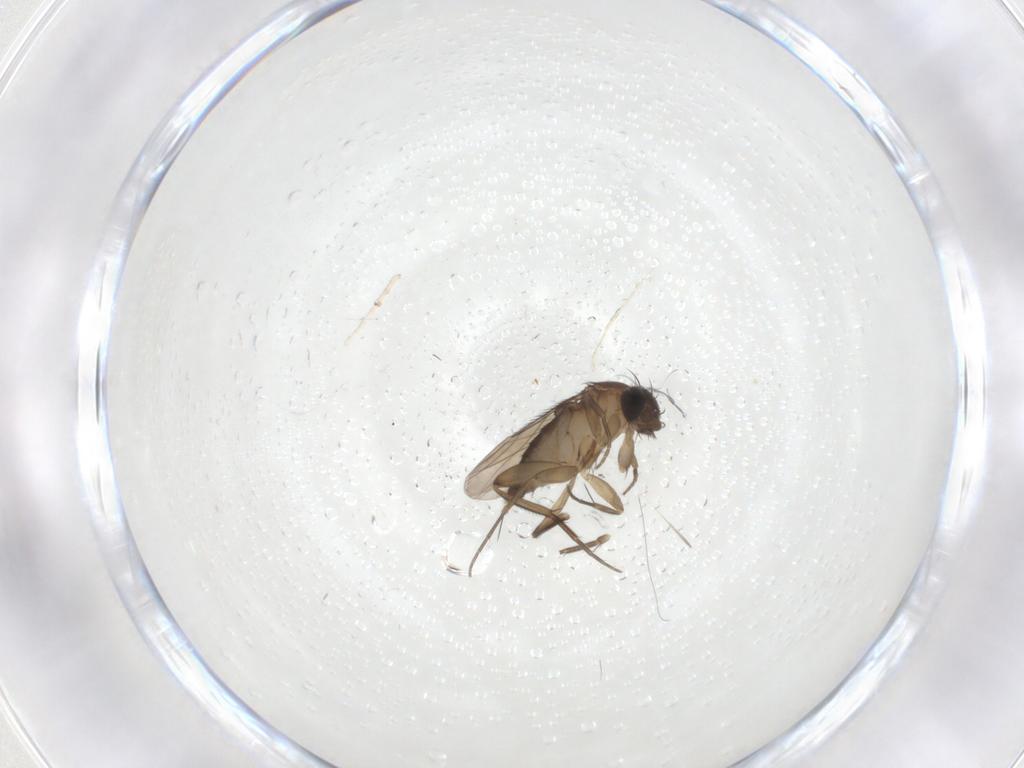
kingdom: Animalia
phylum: Arthropoda
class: Insecta
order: Diptera
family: Phoridae
